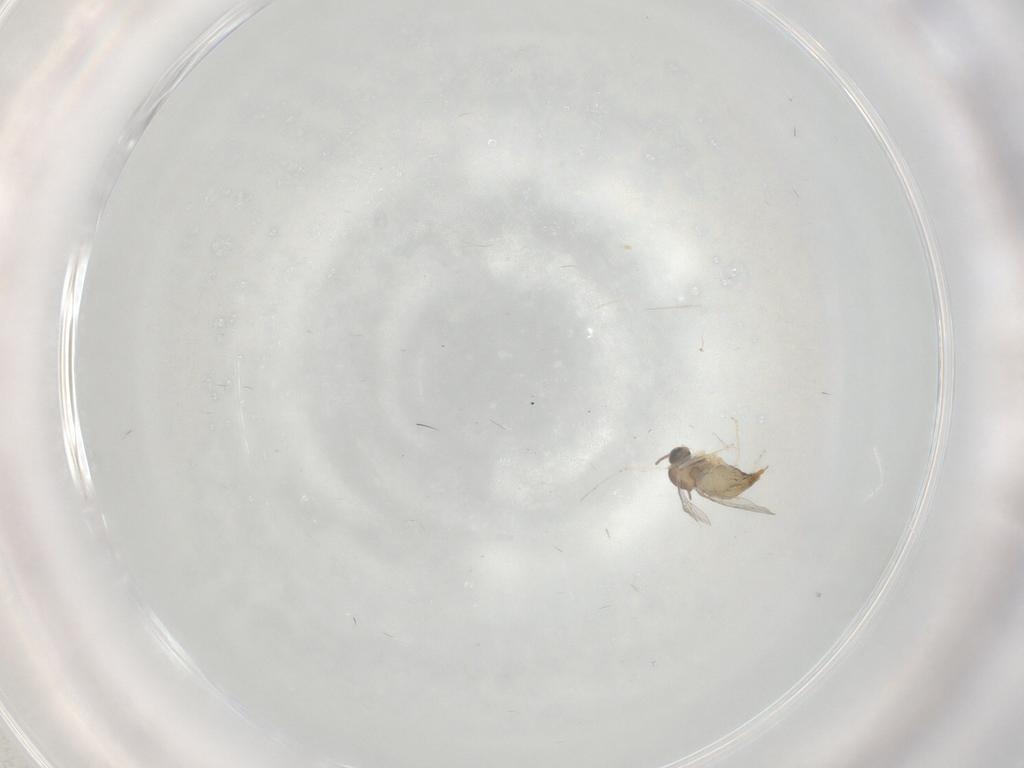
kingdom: Animalia
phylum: Arthropoda
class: Insecta
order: Diptera
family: Cecidomyiidae
